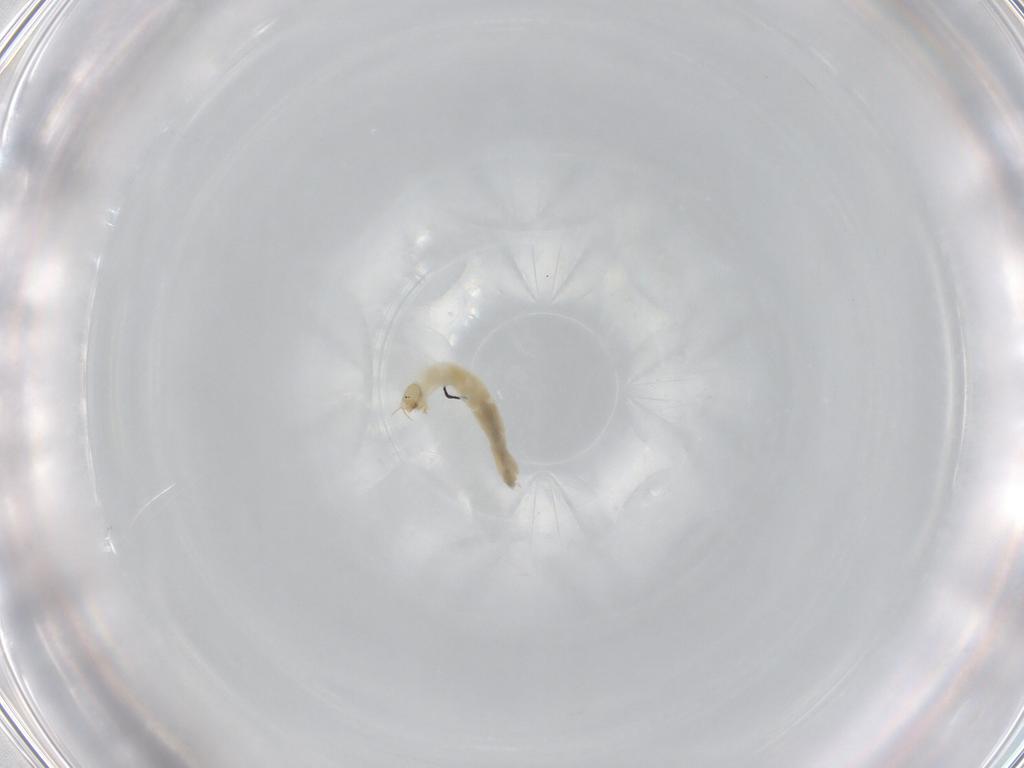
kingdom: Animalia
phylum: Arthropoda
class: Insecta
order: Diptera
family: Chironomidae
